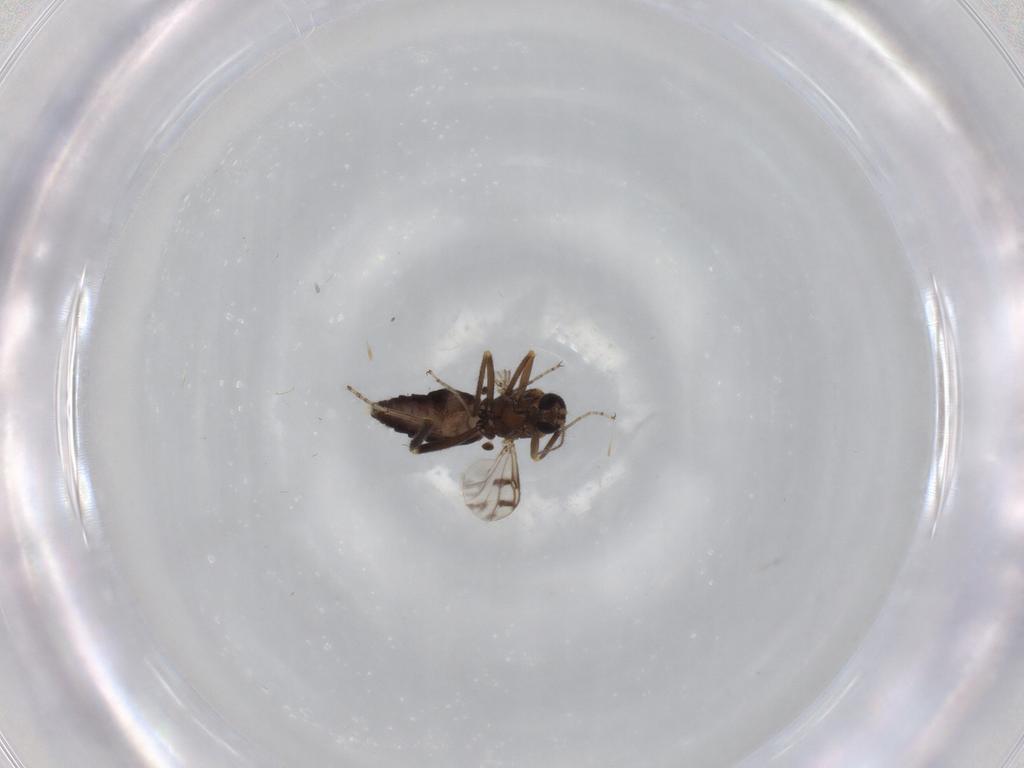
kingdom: Animalia
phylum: Arthropoda
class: Insecta
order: Diptera
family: Ceratopogonidae
